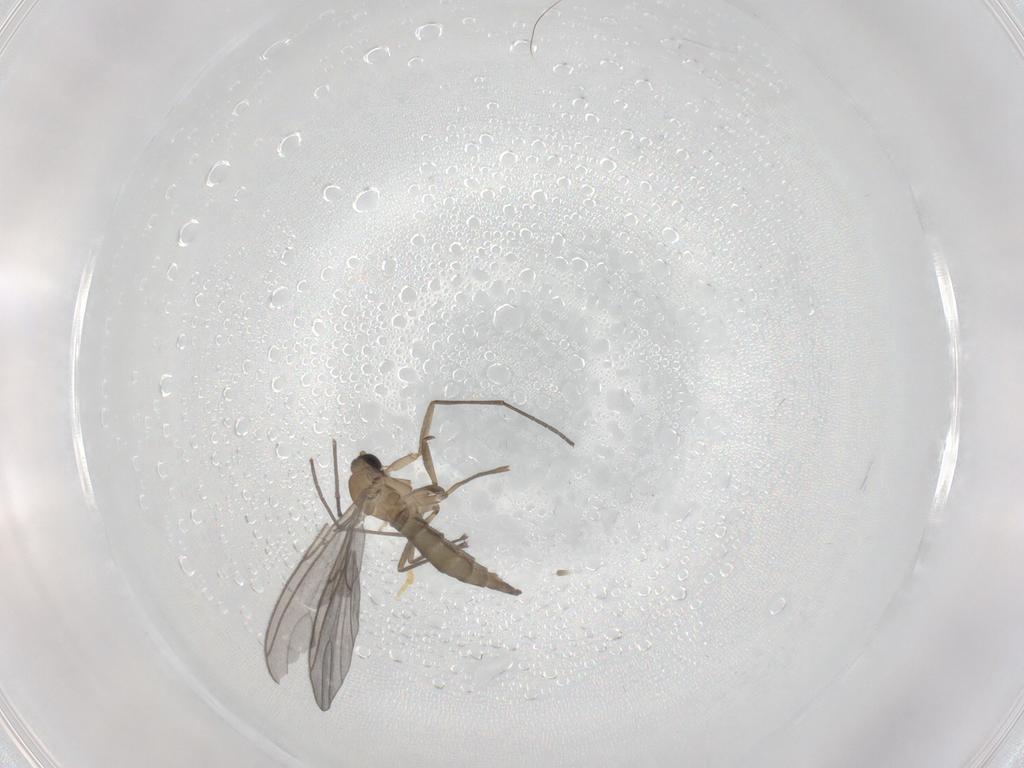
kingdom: Animalia
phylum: Arthropoda
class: Insecta
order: Diptera
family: Sciaridae
